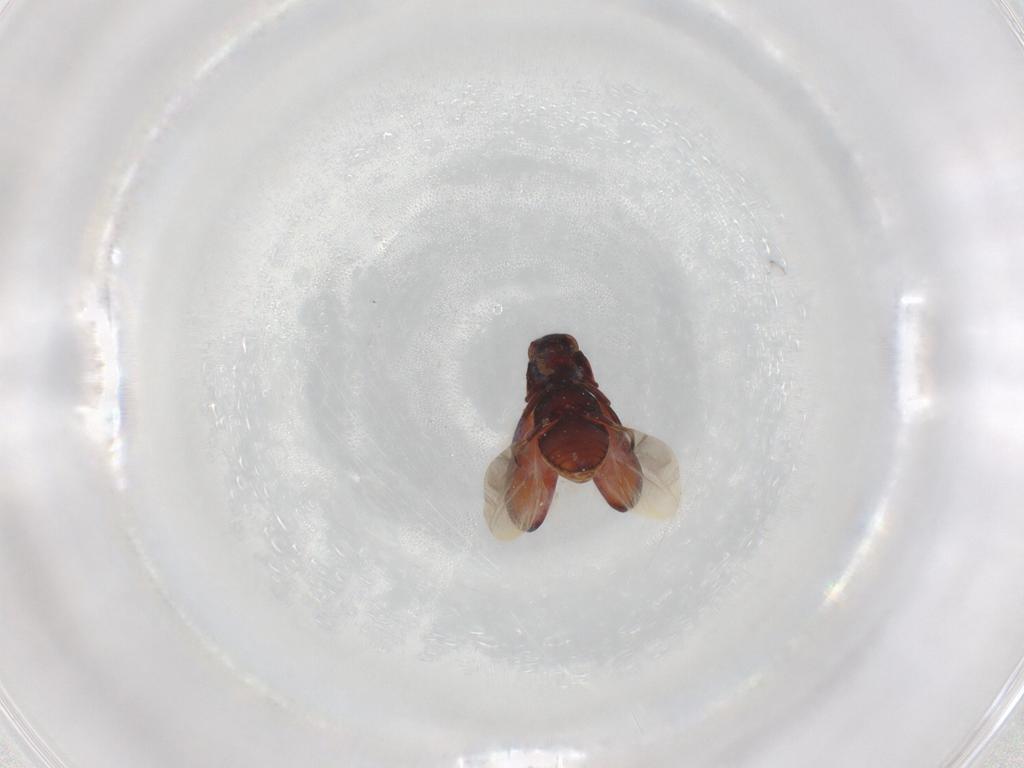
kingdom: Animalia
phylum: Arthropoda
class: Insecta
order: Coleoptera
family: Ptinidae
